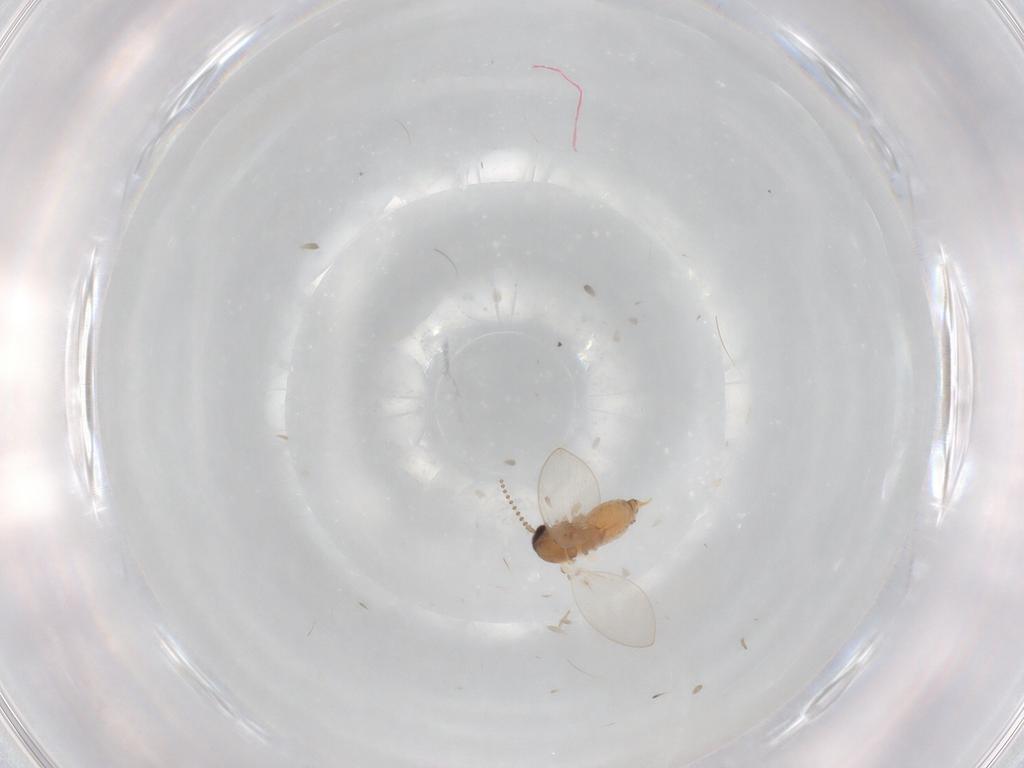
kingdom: Animalia
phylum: Arthropoda
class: Insecta
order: Diptera
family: Psychodidae
